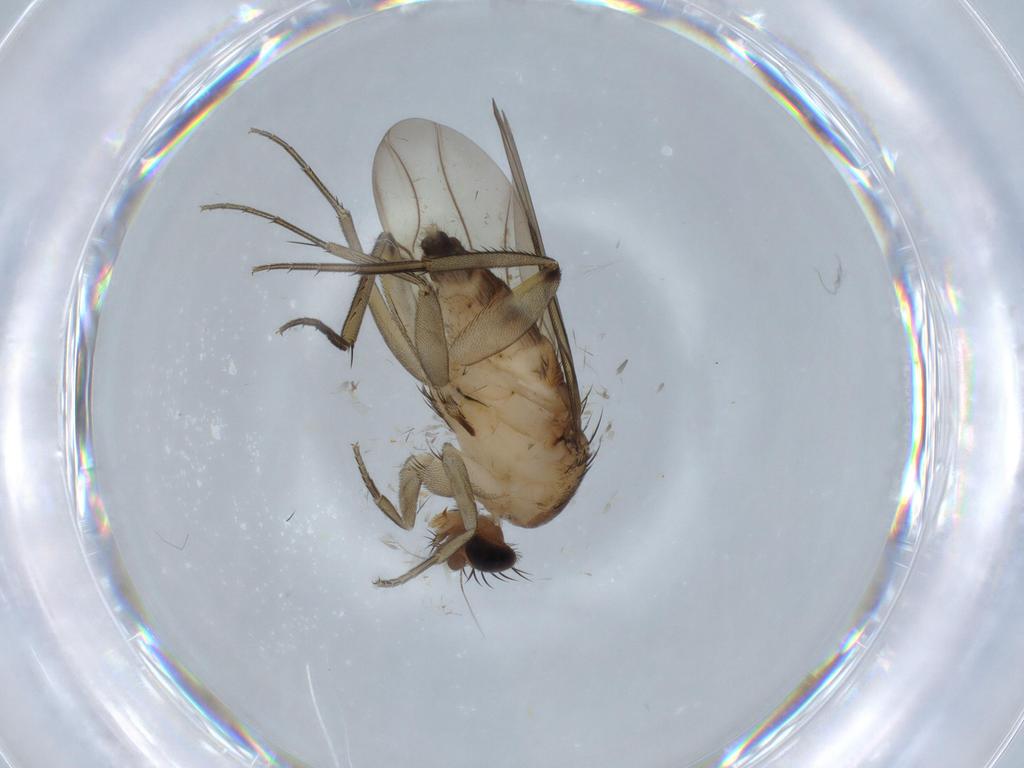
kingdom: Animalia
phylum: Arthropoda
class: Insecta
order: Diptera
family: Phoridae
